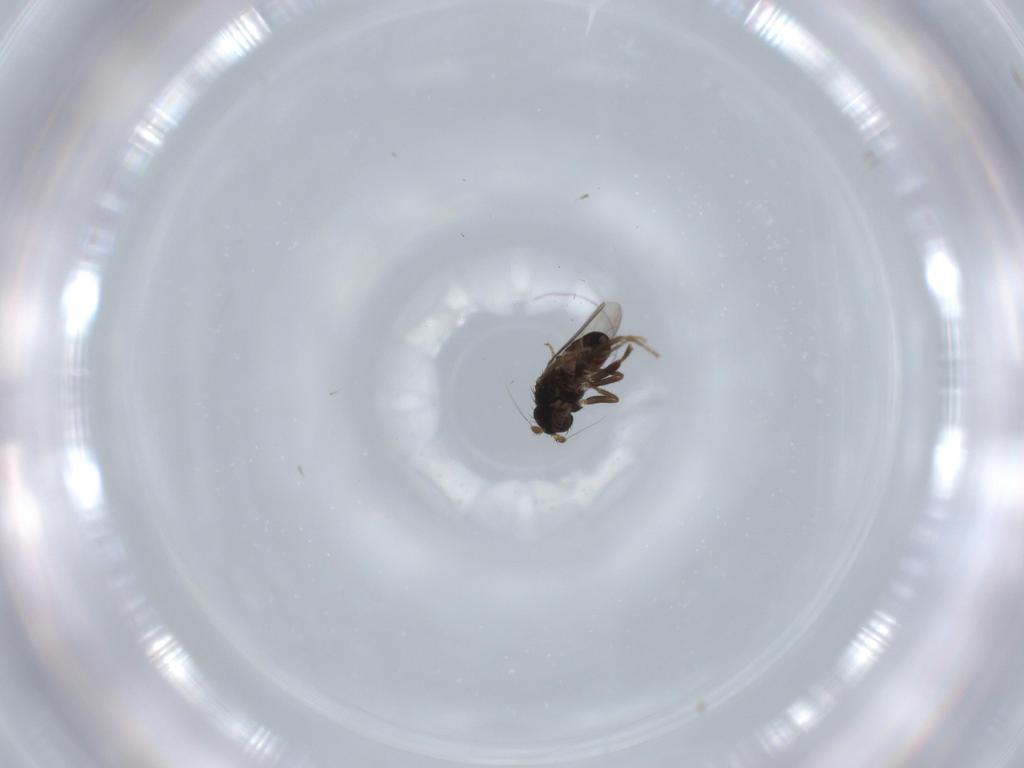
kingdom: Animalia
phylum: Arthropoda
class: Insecta
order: Diptera
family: Sphaeroceridae
